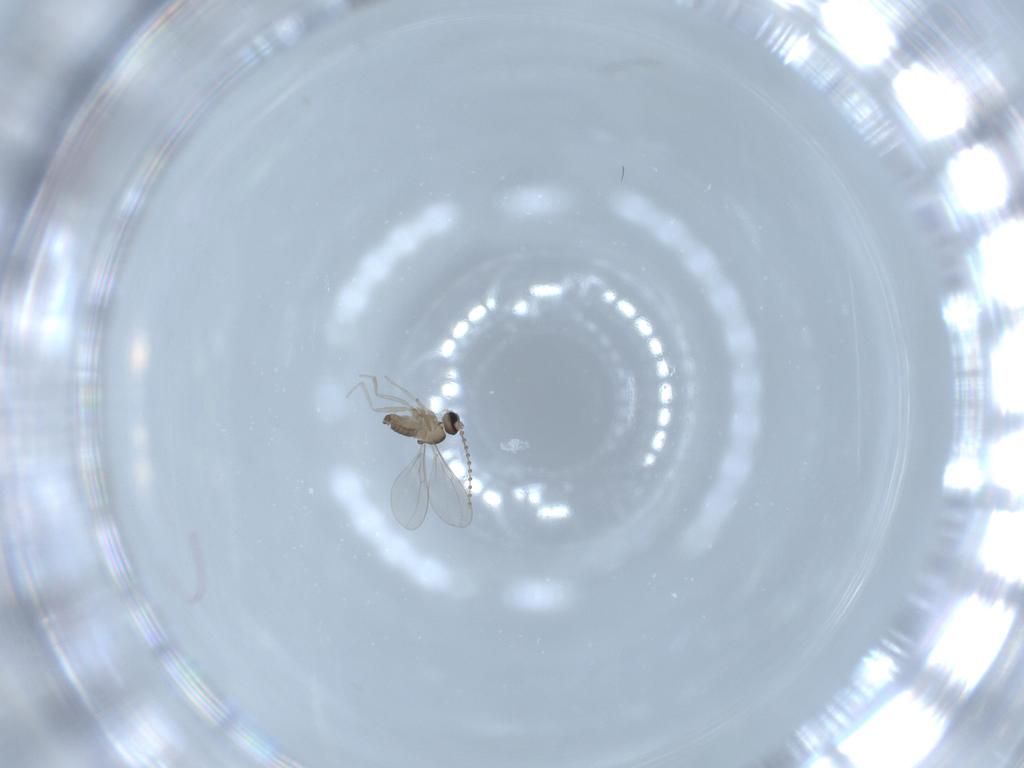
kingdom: Animalia
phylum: Arthropoda
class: Insecta
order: Diptera
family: Cecidomyiidae
